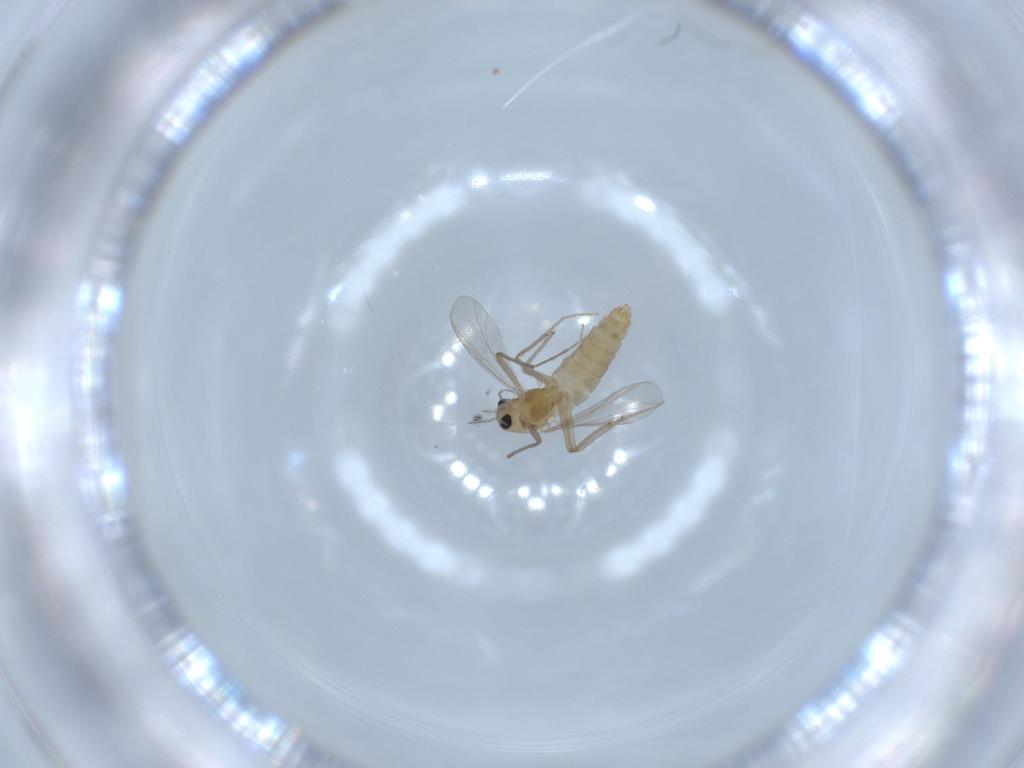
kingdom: Animalia
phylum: Arthropoda
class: Insecta
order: Diptera
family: Chironomidae
